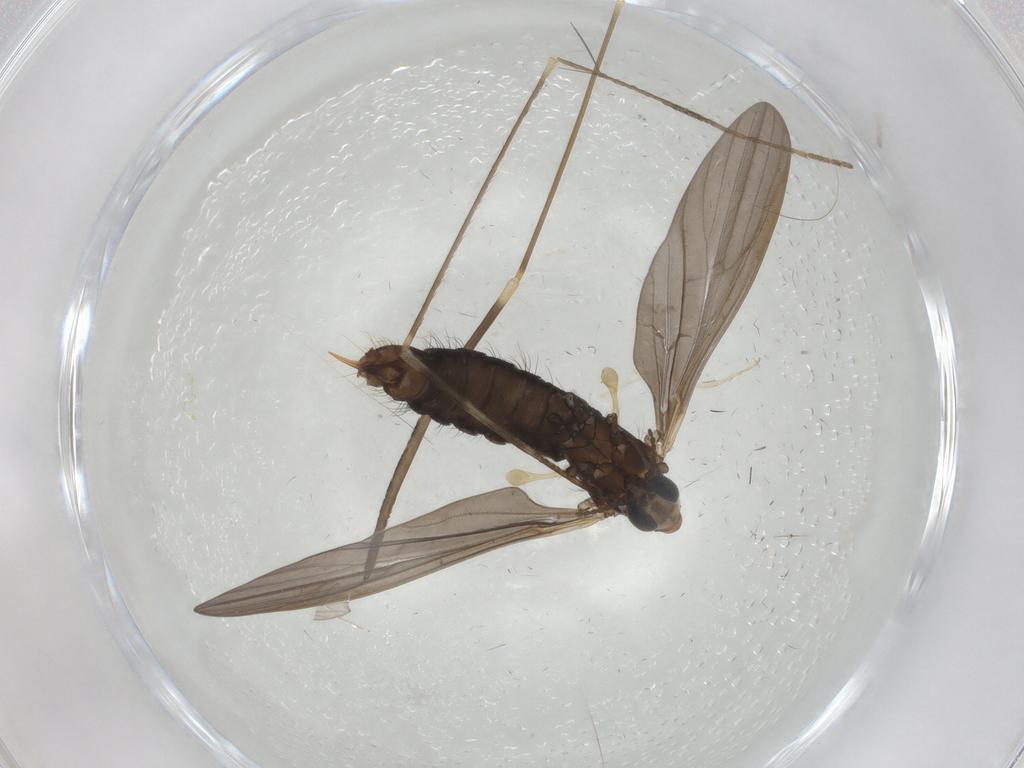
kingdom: Animalia
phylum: Arthropoda
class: Insecta
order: Diptera
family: Limoniidae
